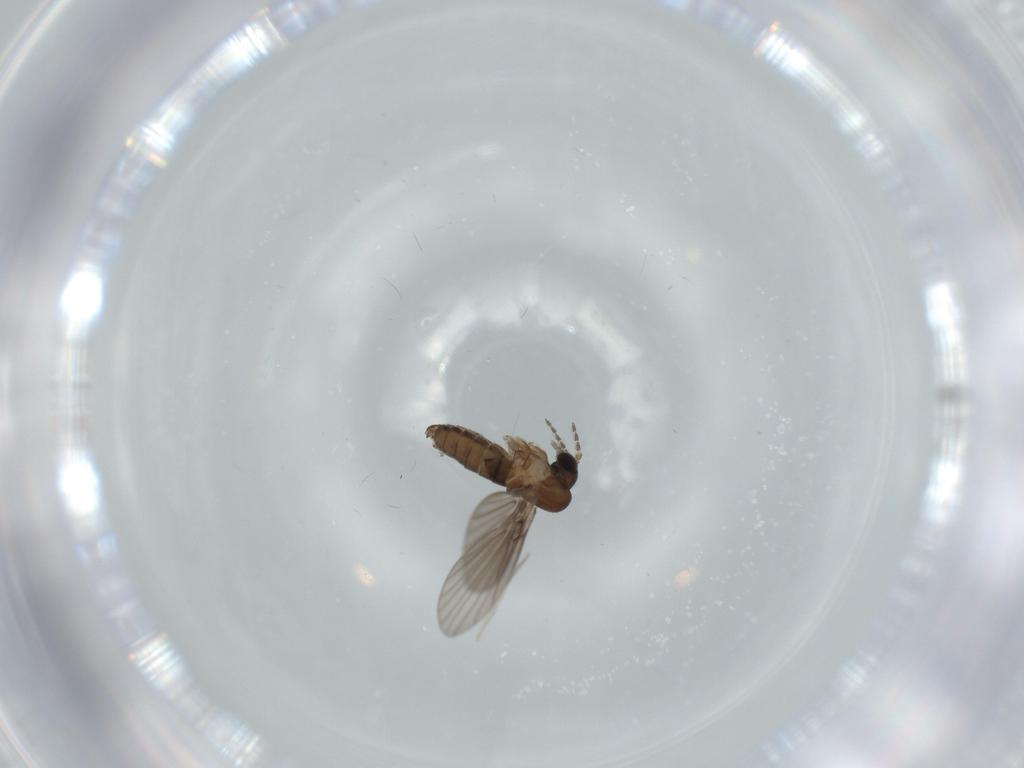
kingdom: Animalia
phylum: Arthropoda
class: Insecta
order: Diptera
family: Psychodidae
